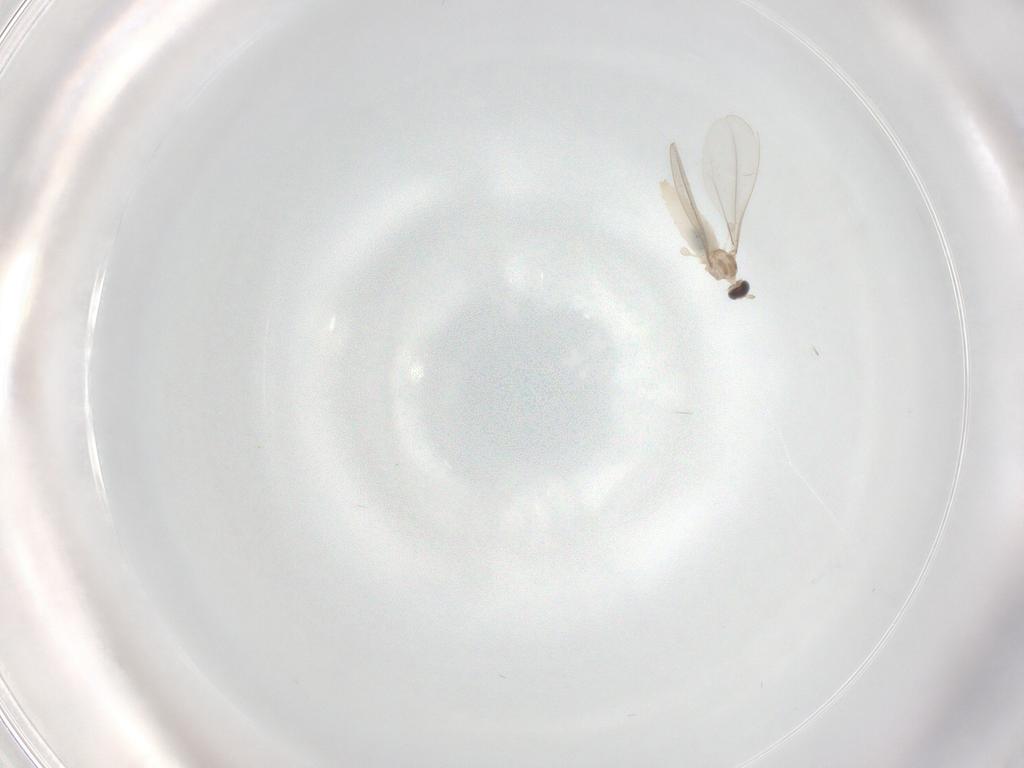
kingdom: Animalia
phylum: Arthropoda
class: Insecta
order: Diptera
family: Cecidomyiidae
